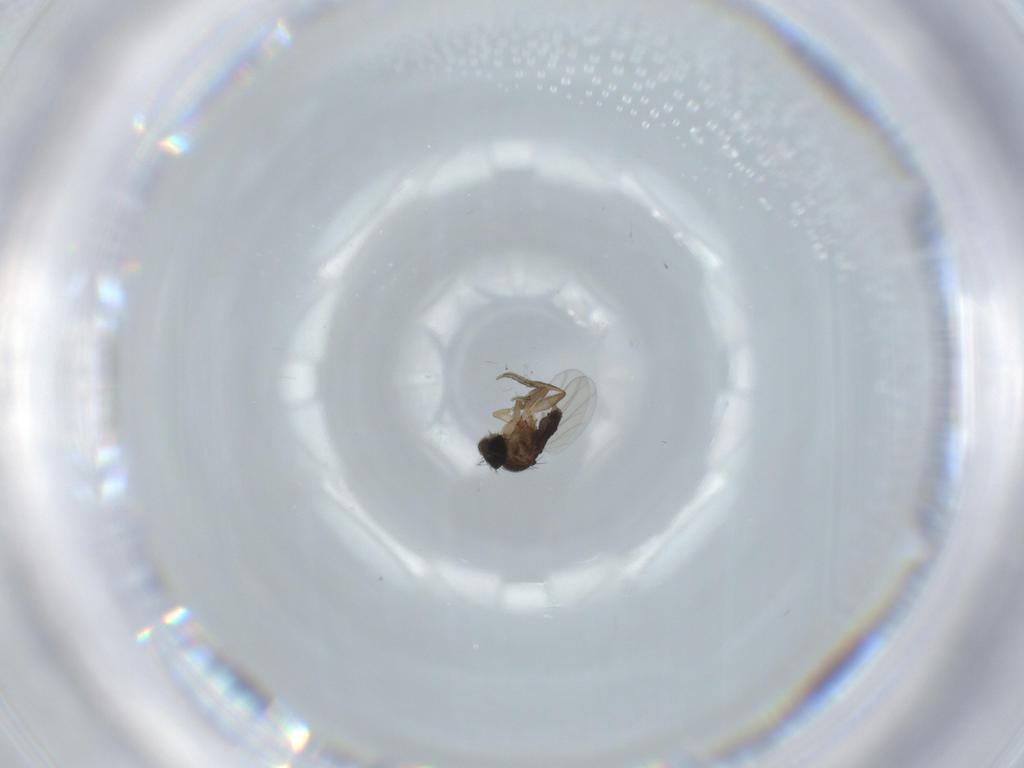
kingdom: Animalia
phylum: Arthropoda
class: Insecta
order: Diptera
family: Phoridae
